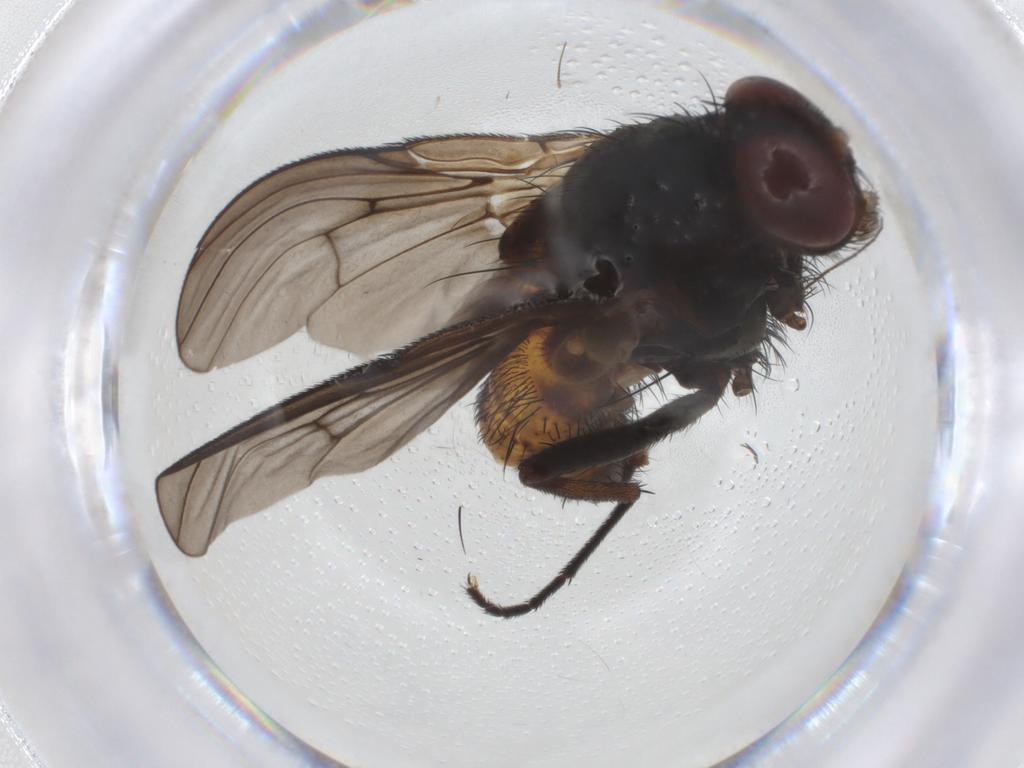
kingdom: Animalia
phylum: Arthropoda
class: Insecta
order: Diptera
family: Muscidae
